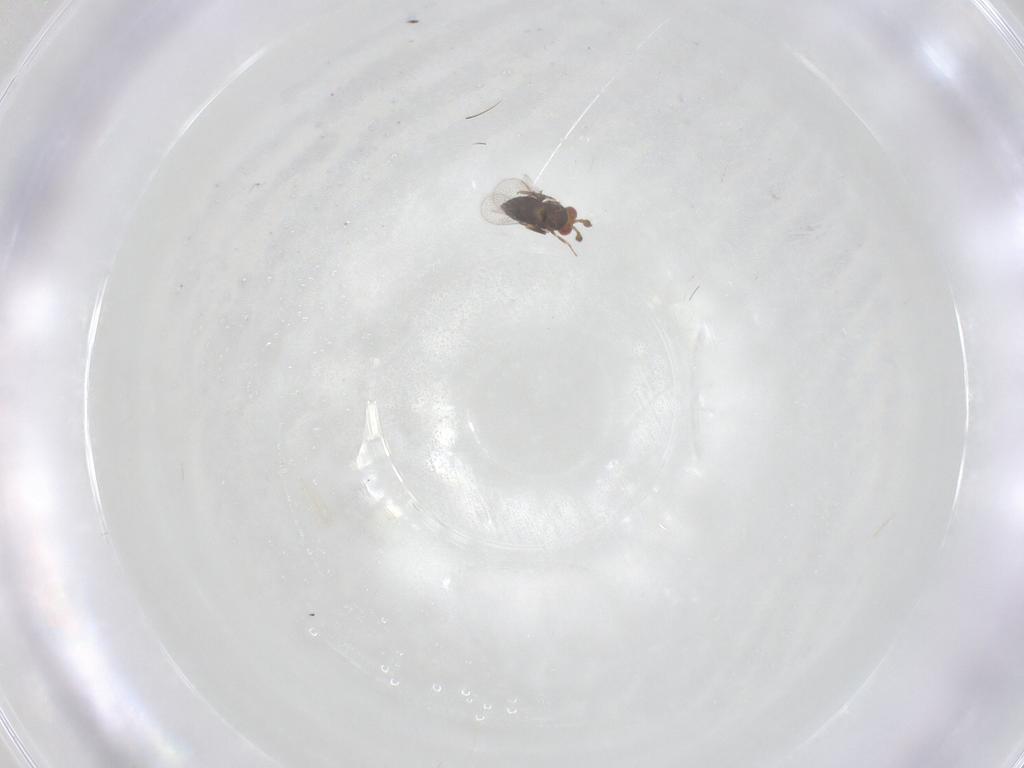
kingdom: Animalia
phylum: Arthropoda
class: Insecta
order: Hymenoptera
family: Trichogrammatidae
